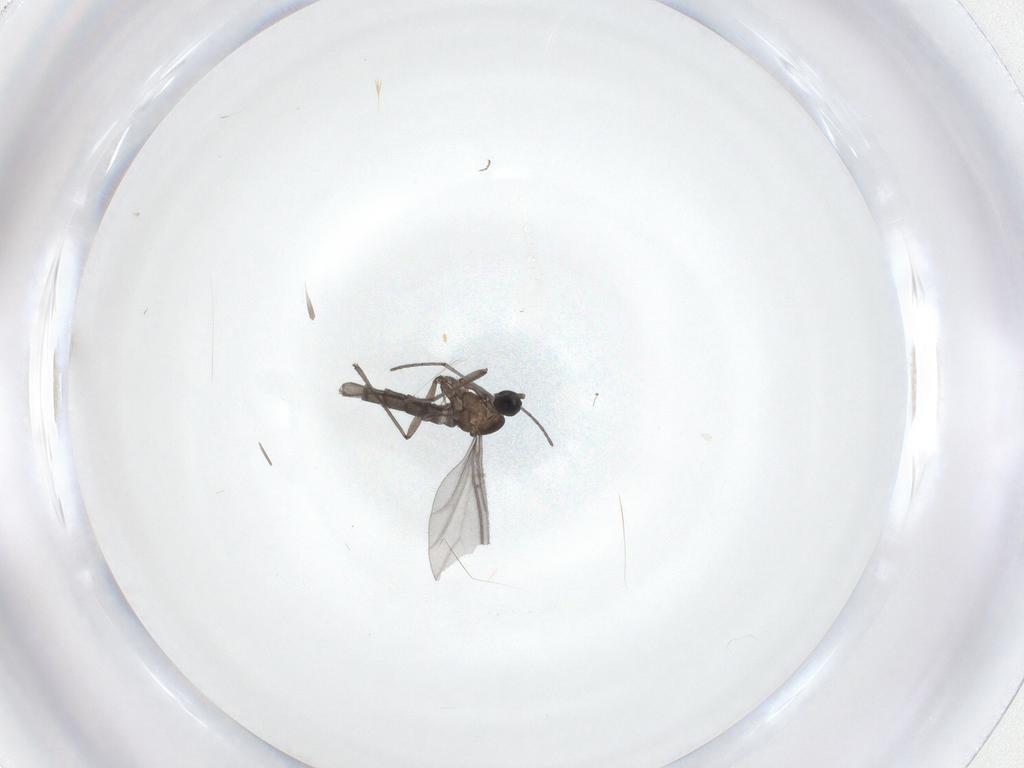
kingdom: Animalia
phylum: Arthropoda
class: Insecta
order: Diptera
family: Sciaridae
